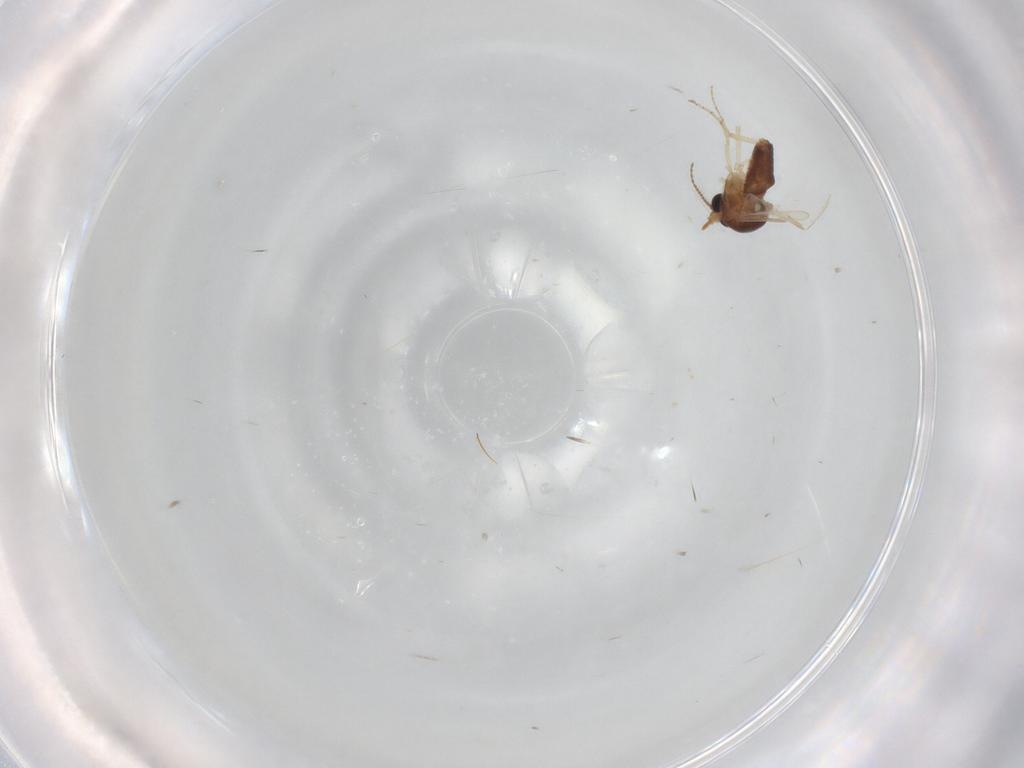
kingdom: Animalia
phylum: Arthropoda
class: Insecta
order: Diptera
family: Ceratopogonidae
